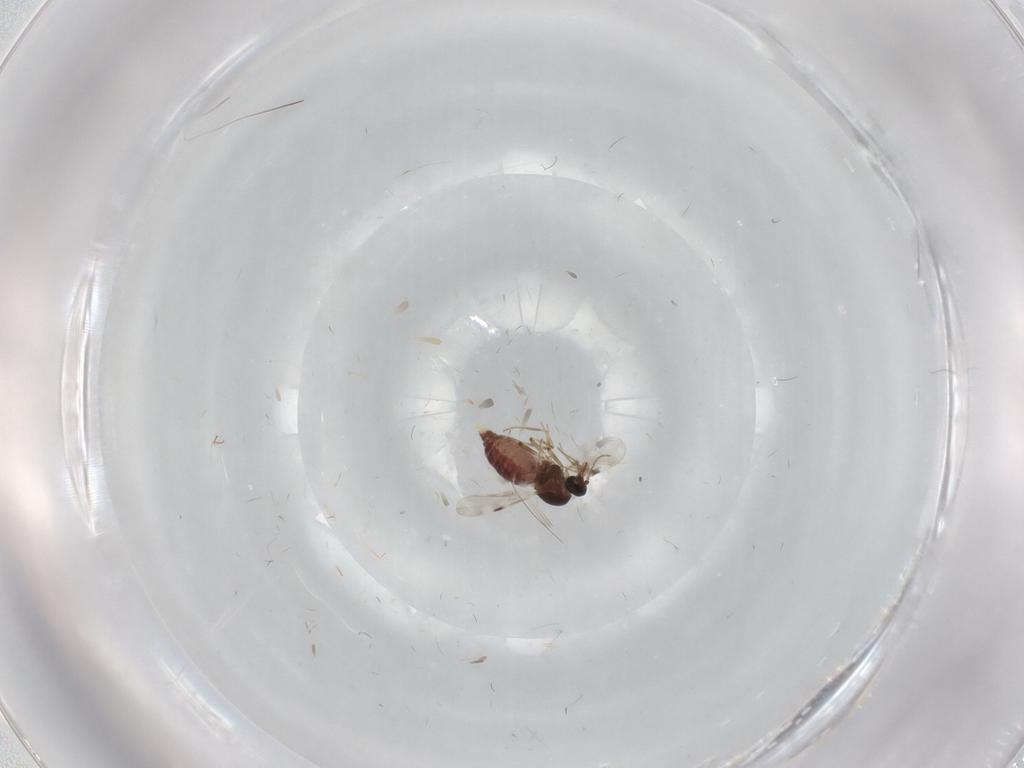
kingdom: Animalia
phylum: Arthropoda
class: Insecta
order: Diptera
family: Psychodidae
